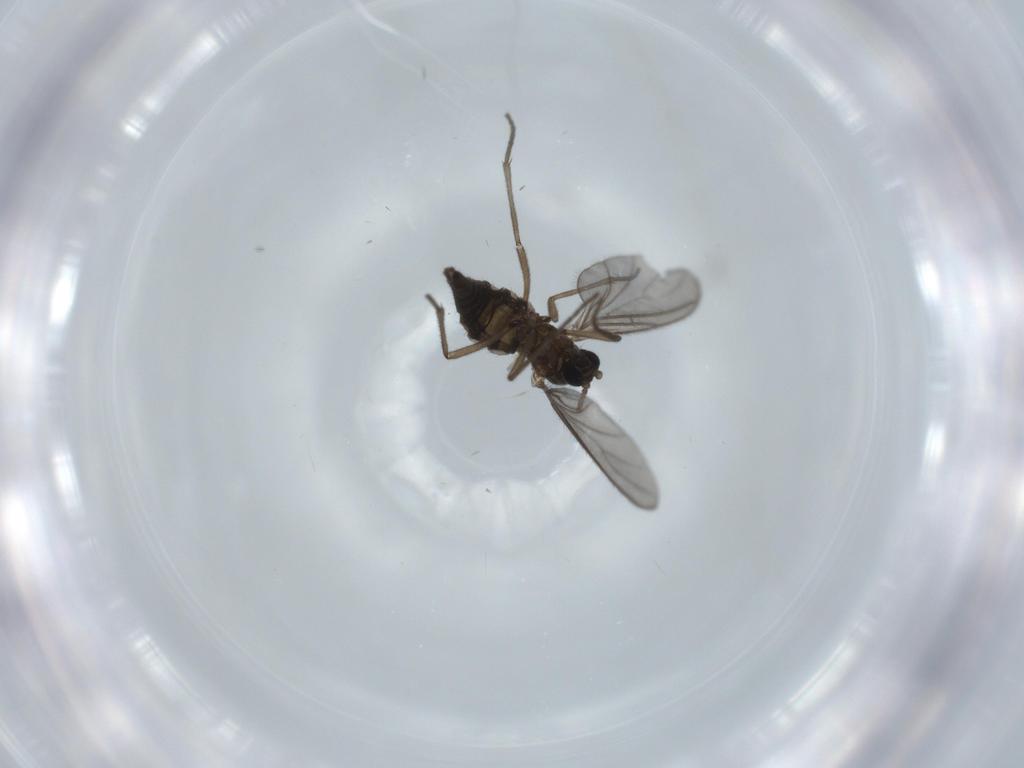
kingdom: Animalia
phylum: Arthropoda
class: Insecta
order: Diptera
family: Sciaridae
